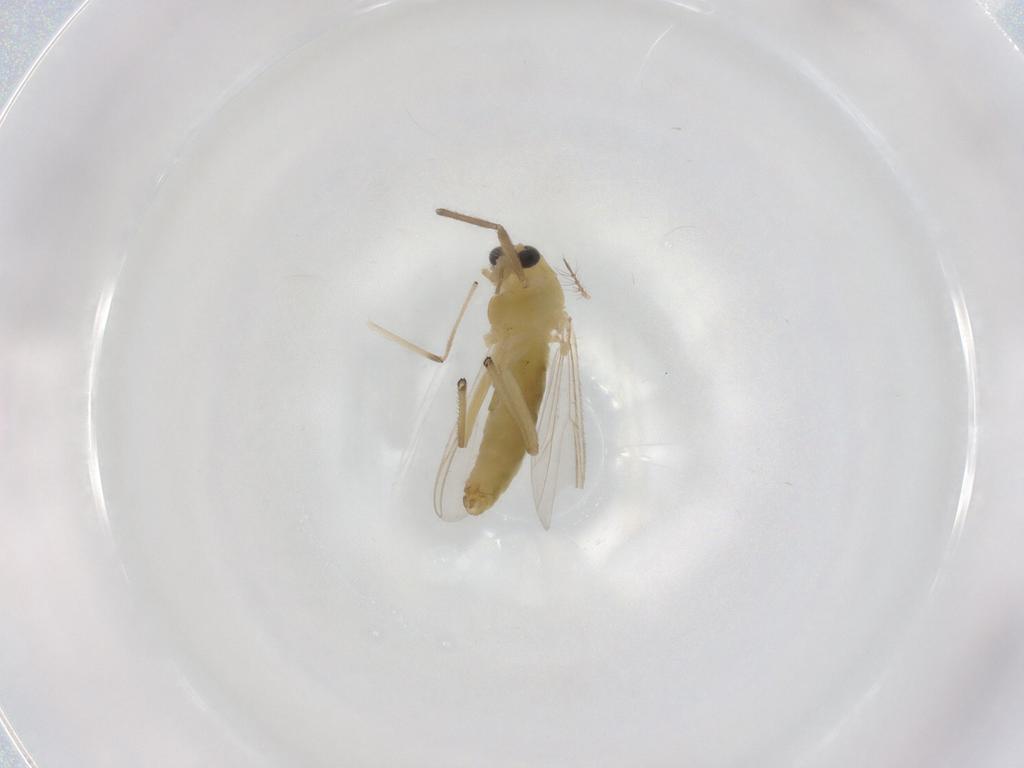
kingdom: Animalia
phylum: Arthropoda
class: Insecta
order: Diptera
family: Chironomidae
